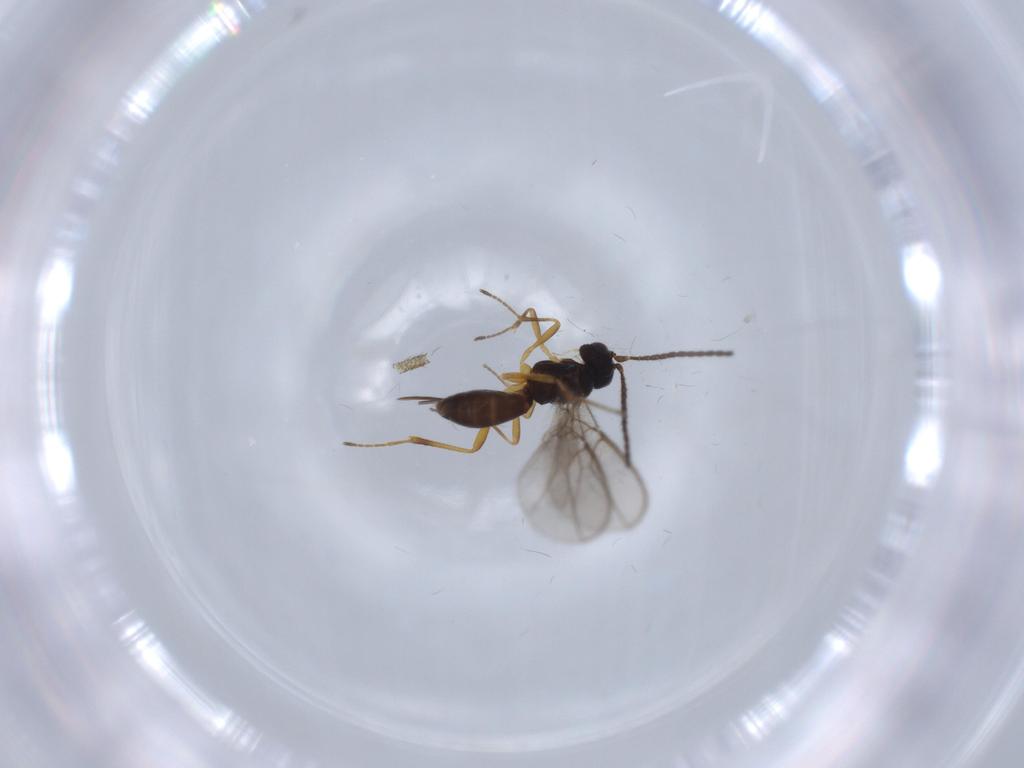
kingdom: Animalia
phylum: Arthropoda
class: Insecta
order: Hymenoptera
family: Braconidae
